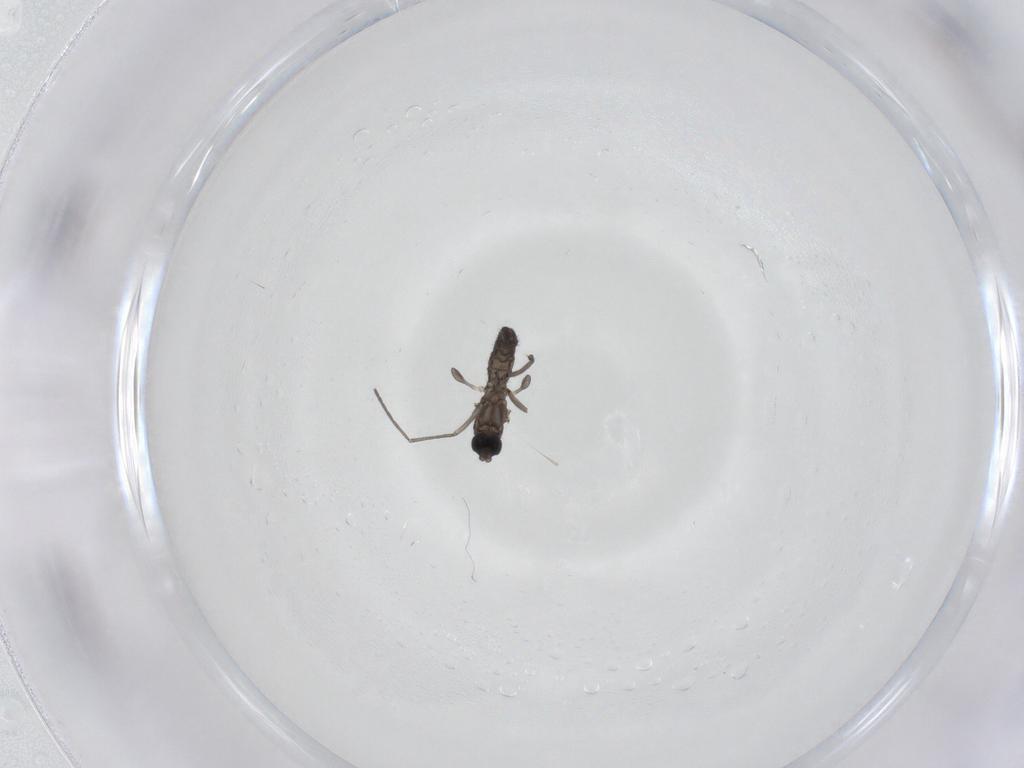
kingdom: Animalia
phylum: Arthropoda
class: Insecta
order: Diptera
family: Sciaridae
